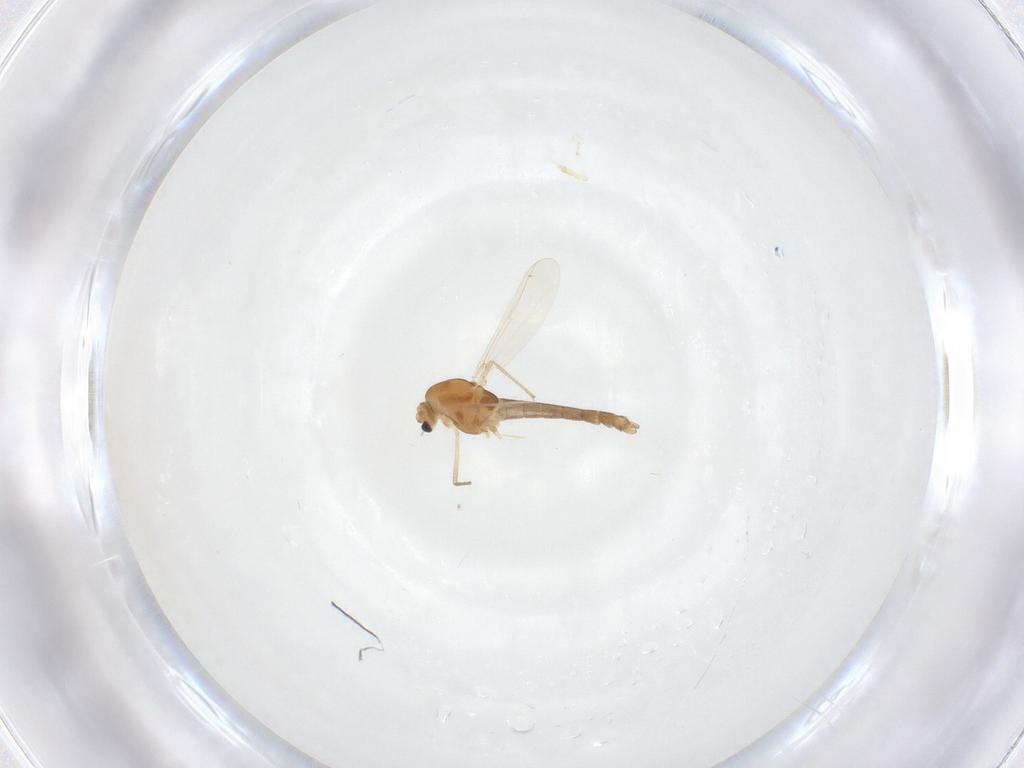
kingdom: Animalia
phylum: Arthropoda
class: Insecta
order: Diptera
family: Chironomidae
